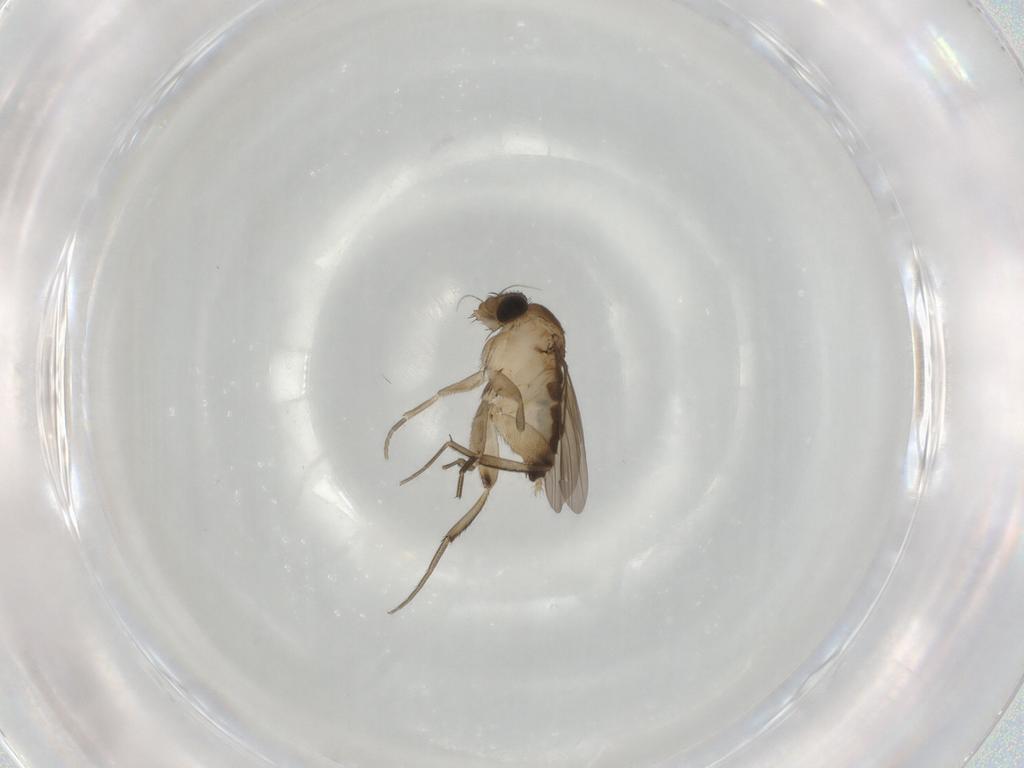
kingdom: Animalia
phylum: Arthropoda
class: Insecta
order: Diptera
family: Phoridae
